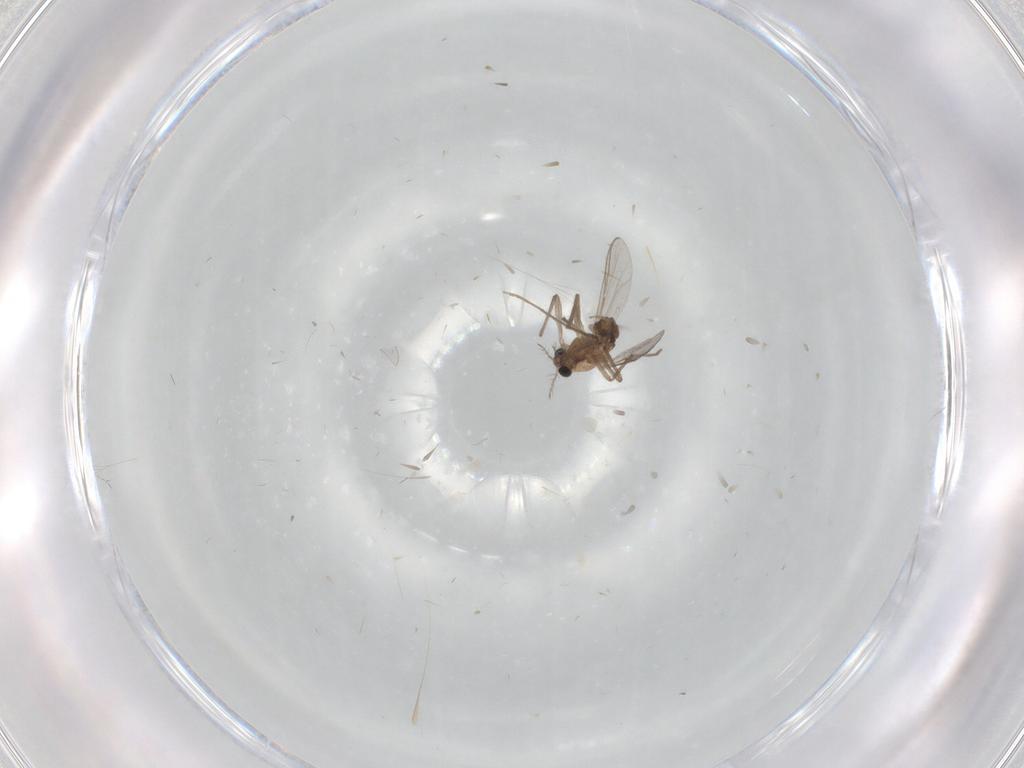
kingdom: Animalia
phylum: Arthropoda
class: Insecta
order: Diptera
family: Chironomidae
